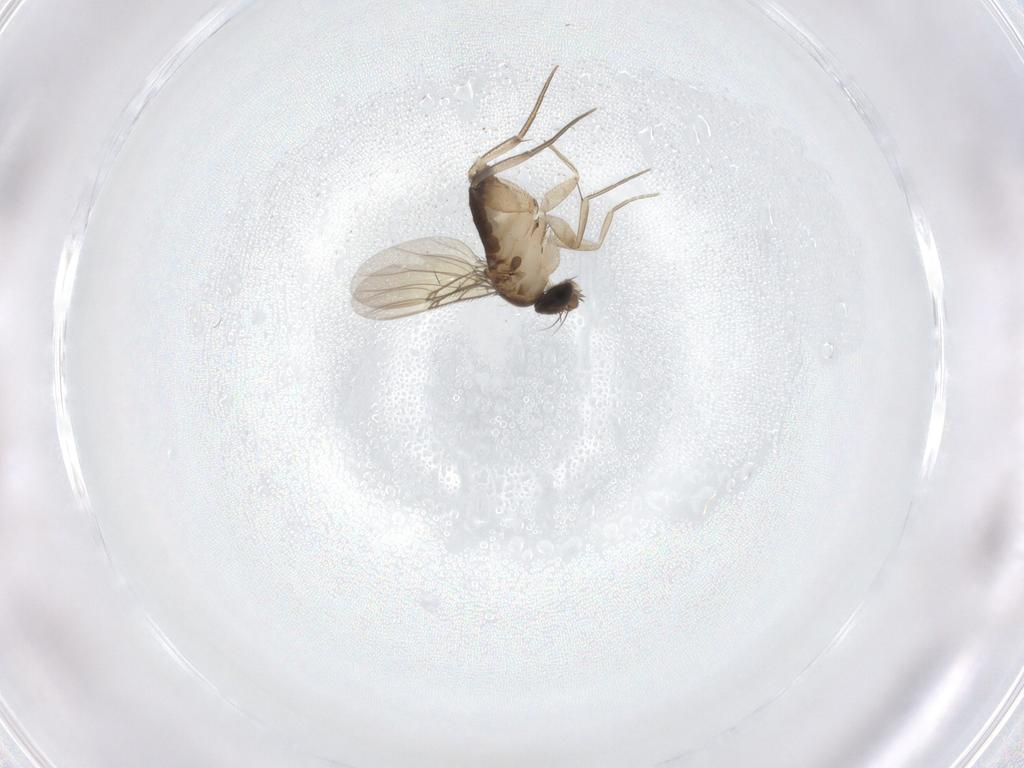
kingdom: Animalia
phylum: Arthropoda
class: Insecta
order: Diptera
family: Phoridae
